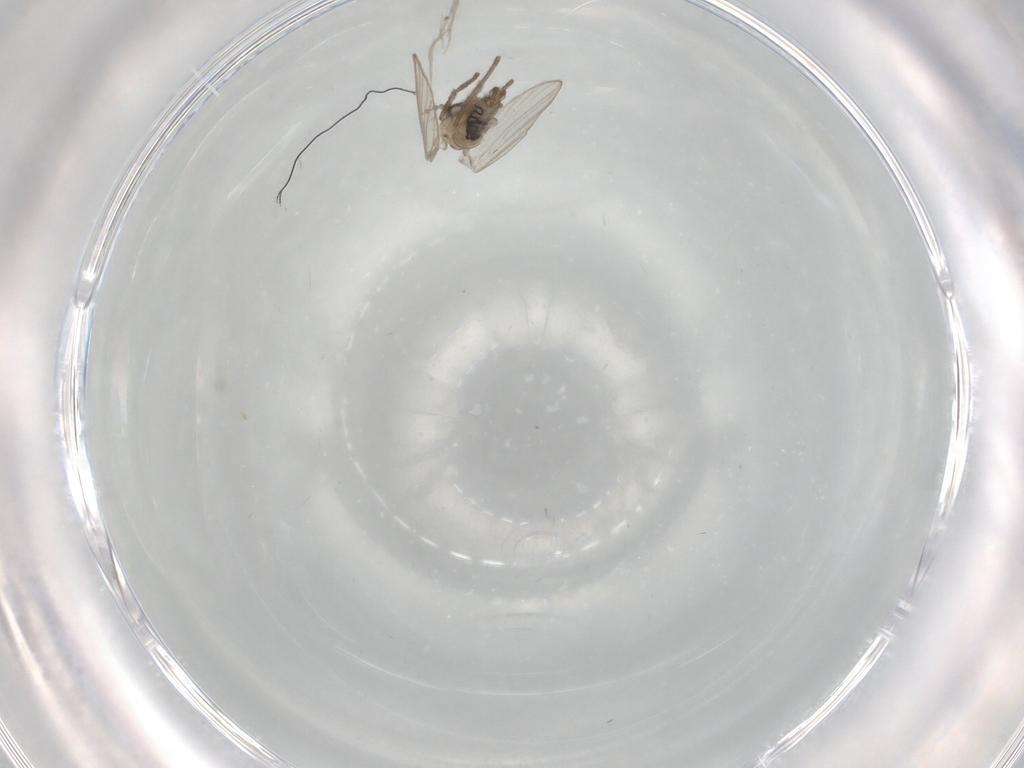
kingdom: Animalia
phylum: Arthropoda
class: Insecta
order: Diptera
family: Psychodidae
